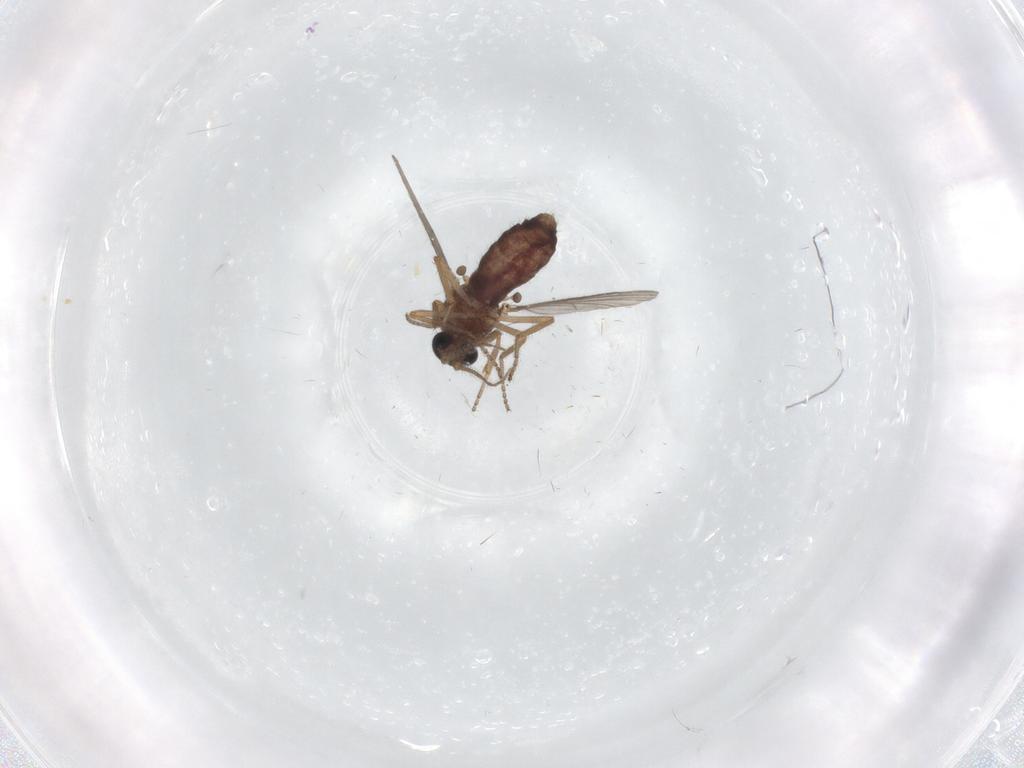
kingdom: Animalia
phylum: Arthropoda
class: Insecta
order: Diptera
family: Ceratopogonidae
